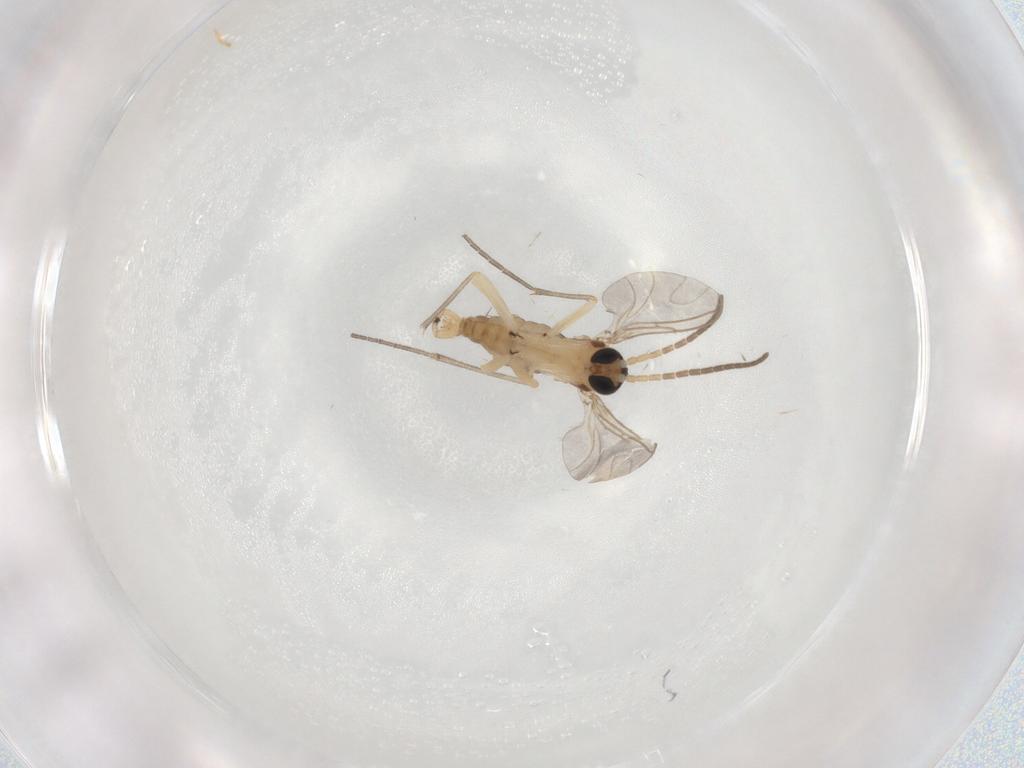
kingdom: Animalia
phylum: Arthropoda
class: Insecta
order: Diptera
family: Sciaridae
